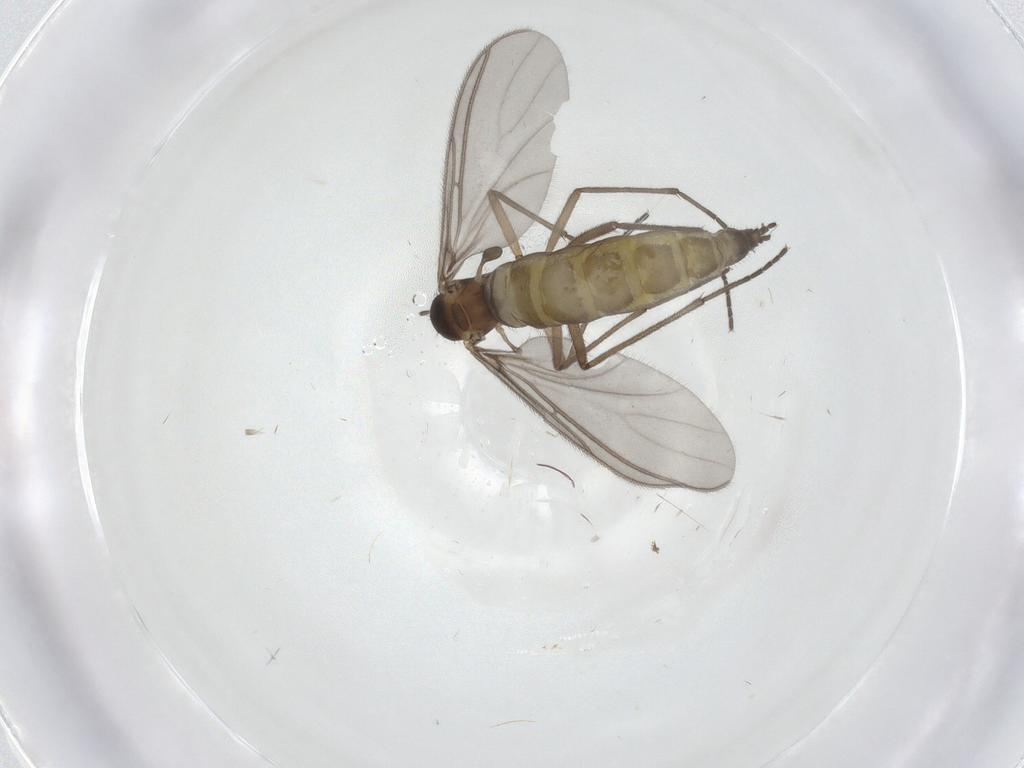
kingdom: Animalia
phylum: Arthropoda
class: Insecta
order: Diptera
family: Sciaridae
